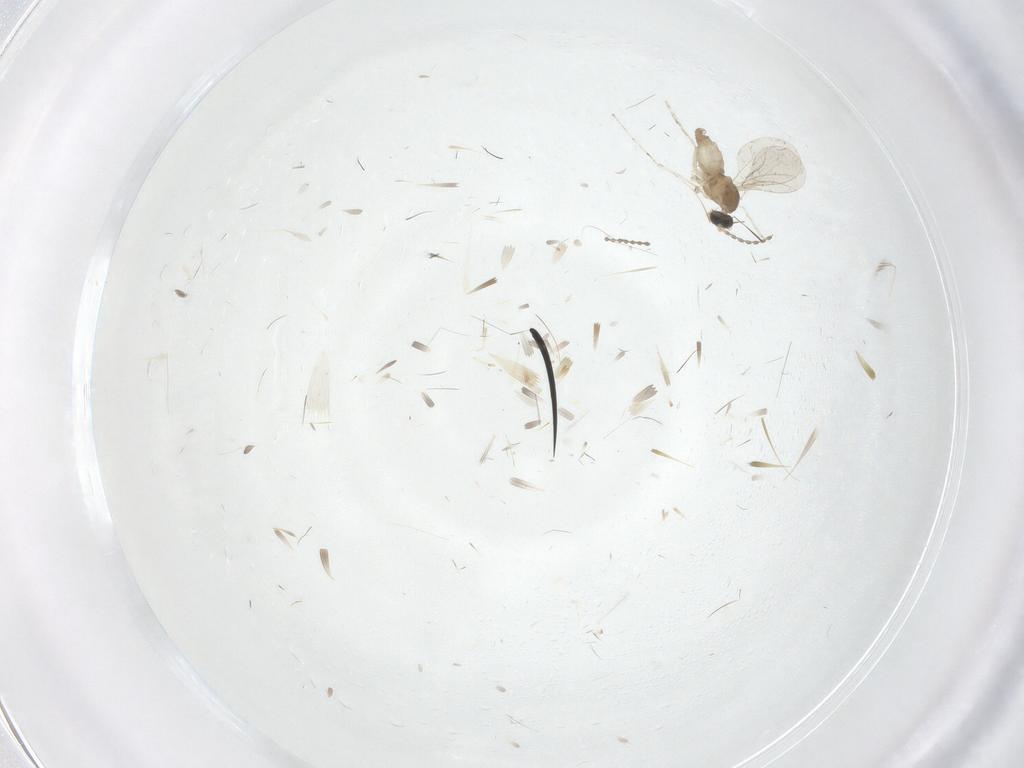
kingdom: Animalia
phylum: Arthropoda
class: Insecta
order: Diptera
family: Cecidomyiidae
